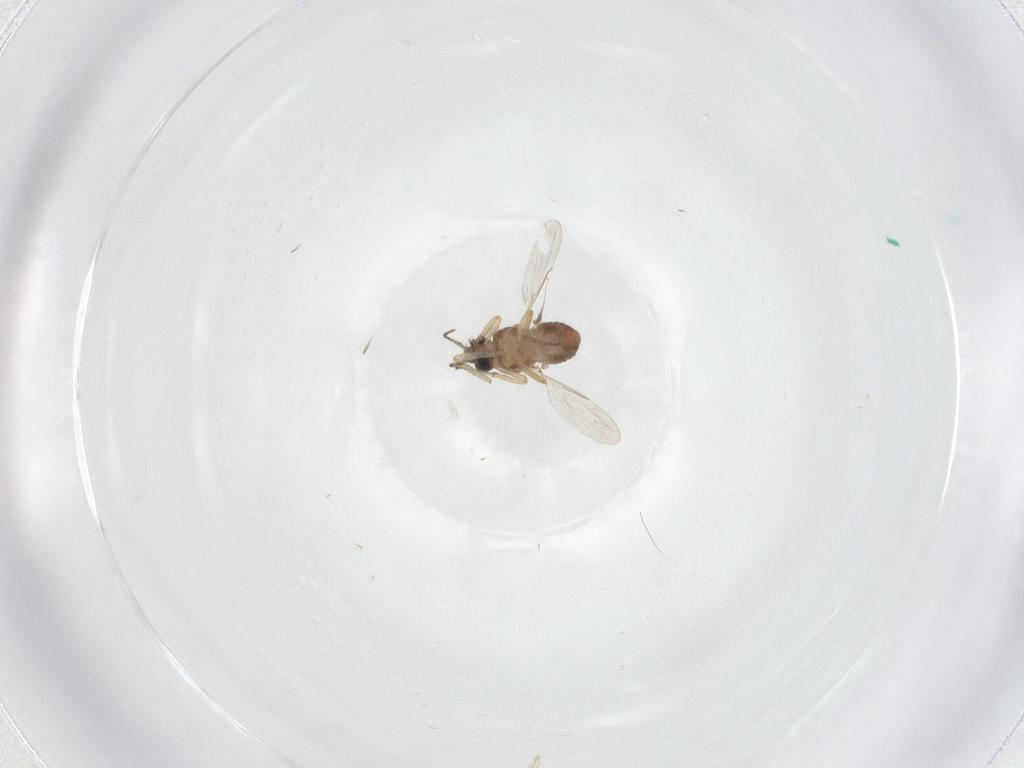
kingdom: Animalia
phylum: Arthropoda
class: Insecta
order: Diptera
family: Ceratopogonidae
